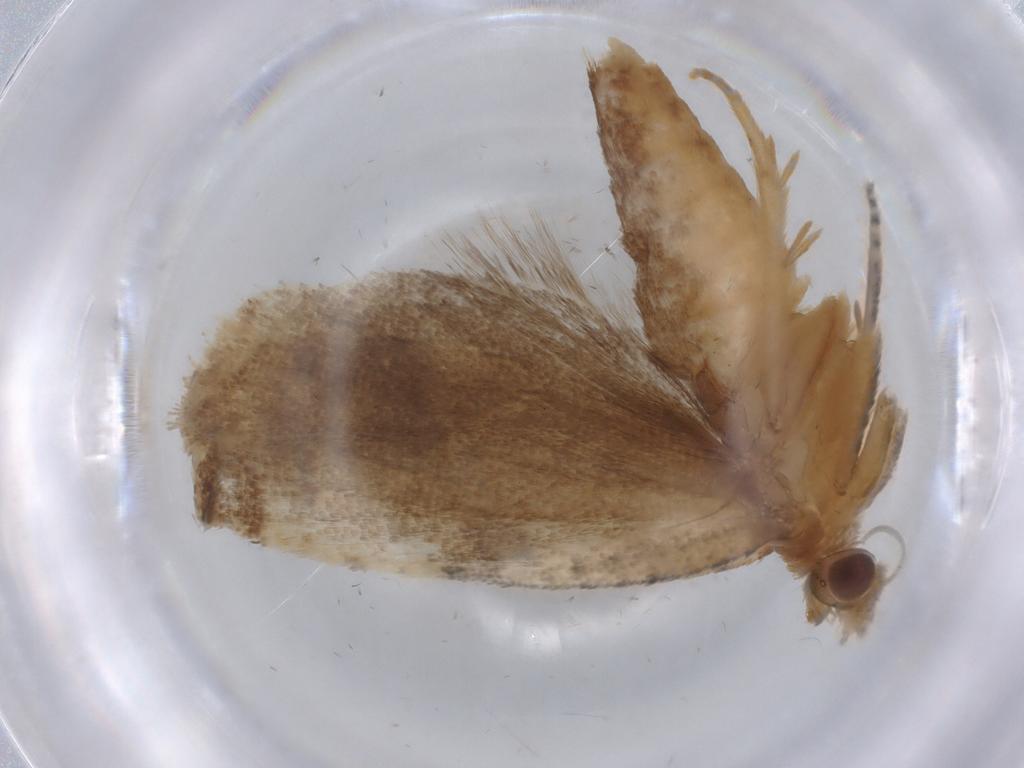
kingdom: Animalia
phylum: Arthropoda
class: Insecta
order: Lepidoptera
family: Tortricidae
